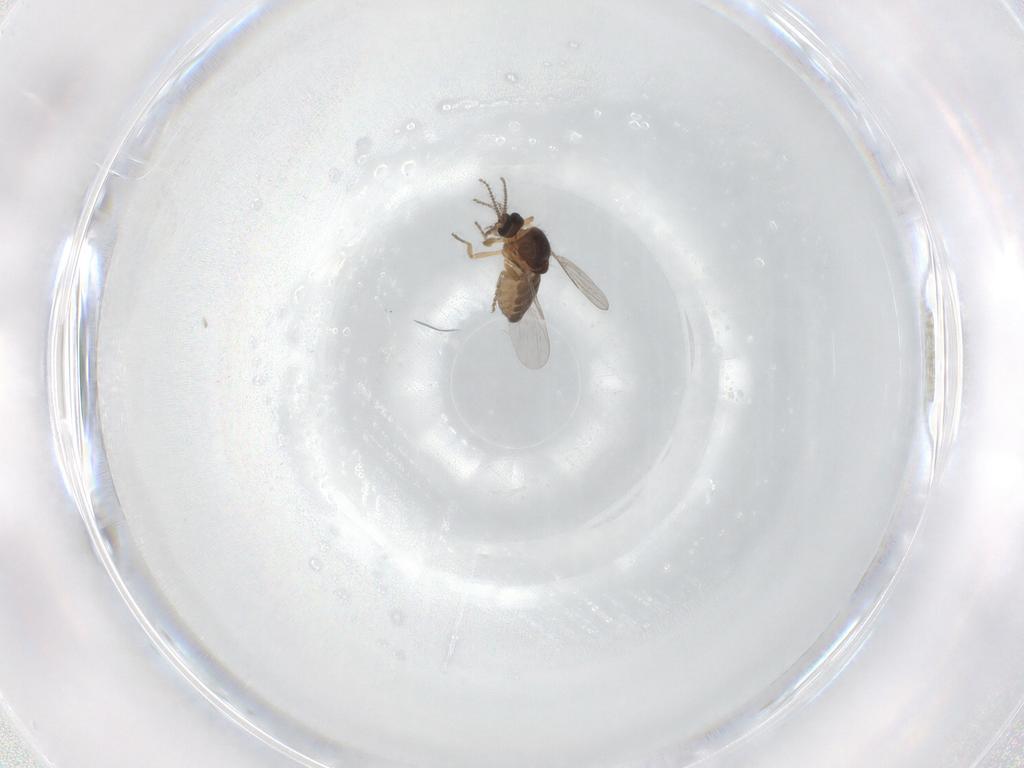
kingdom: Animalia
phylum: Arthropoda
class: Insecta
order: Diptera
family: Ceratopogonidae
